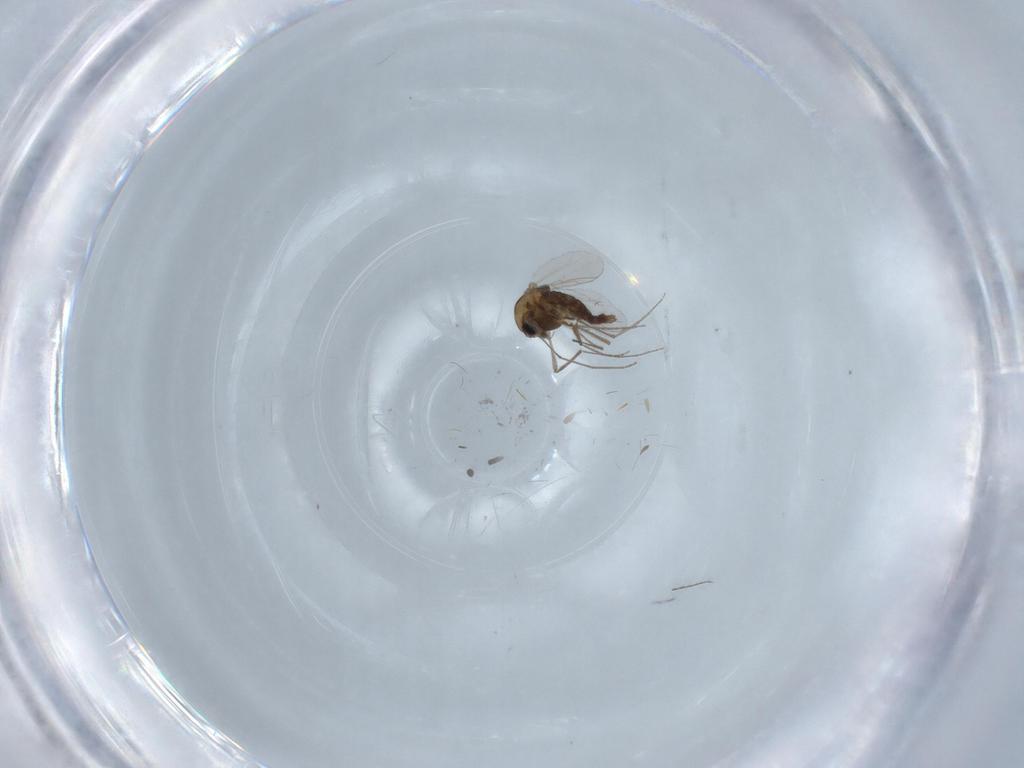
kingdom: Animalia
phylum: Arthropoda
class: Insecta
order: Diptera
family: Chironomidae
